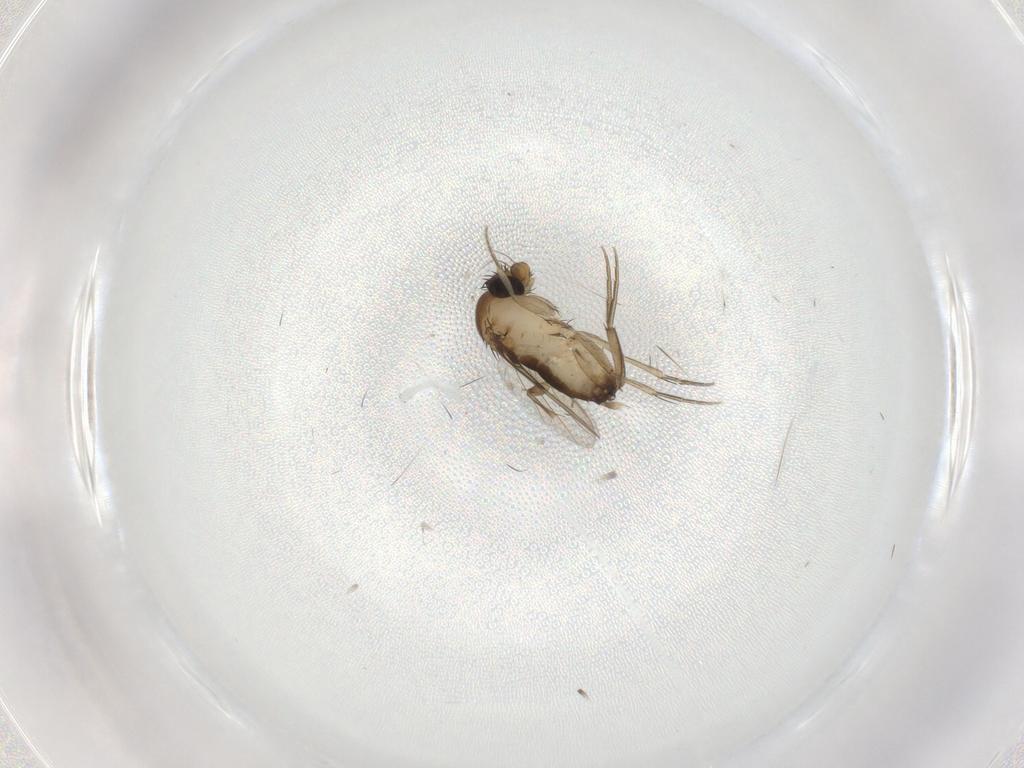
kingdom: Animalia
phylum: Arthropoda
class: Insecta
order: Diptera
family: Phoridae
